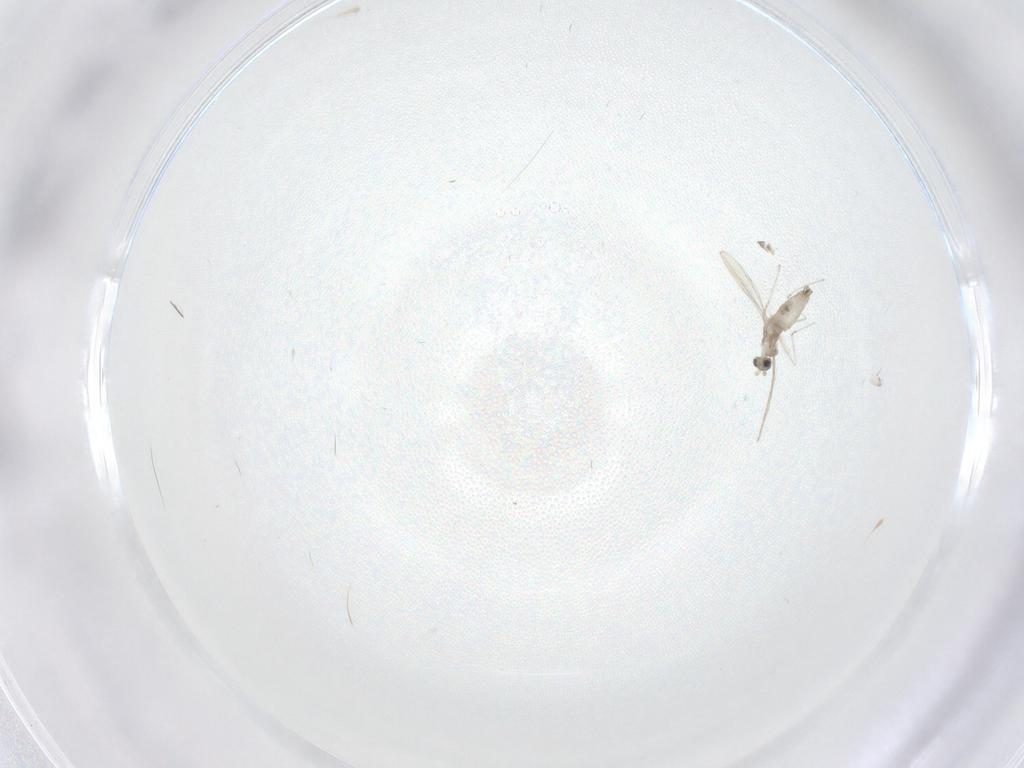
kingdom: Animalia
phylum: Arthropoda
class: Insecta
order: Diptera
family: Cecidomyiidae
